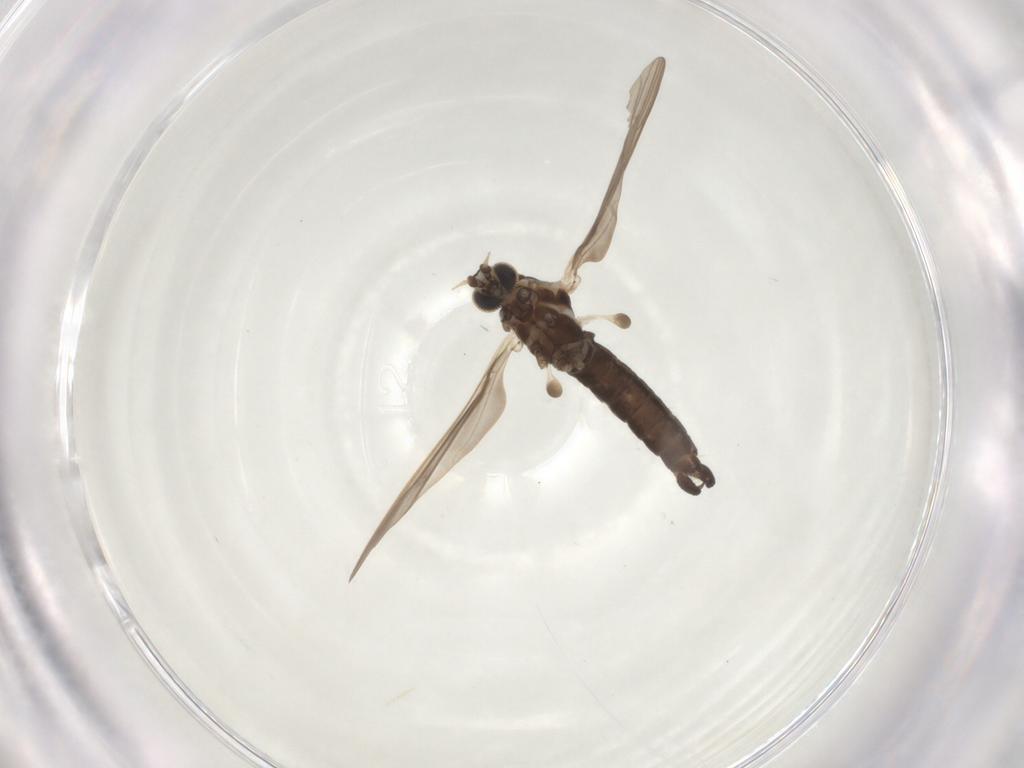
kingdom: Animalia
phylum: Arthropoda
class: Insecta
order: Diptera
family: Limoniidae
